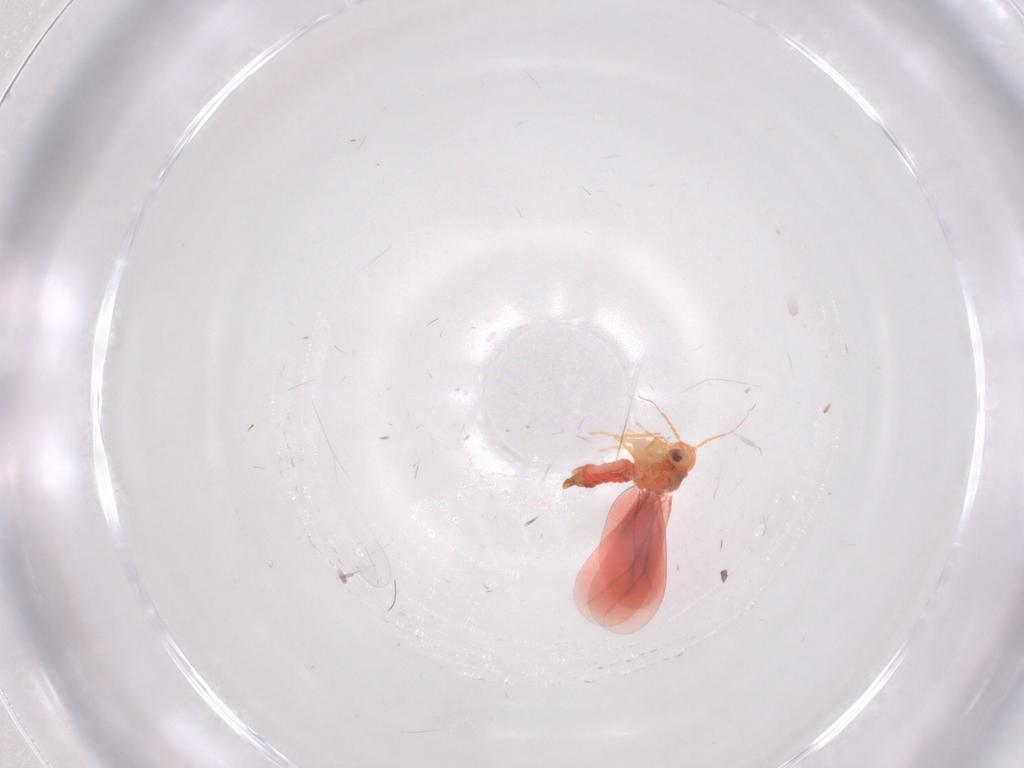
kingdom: Animalia
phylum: Arthropoda
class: Insecta
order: Hemiptera
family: Aleyrodidae
